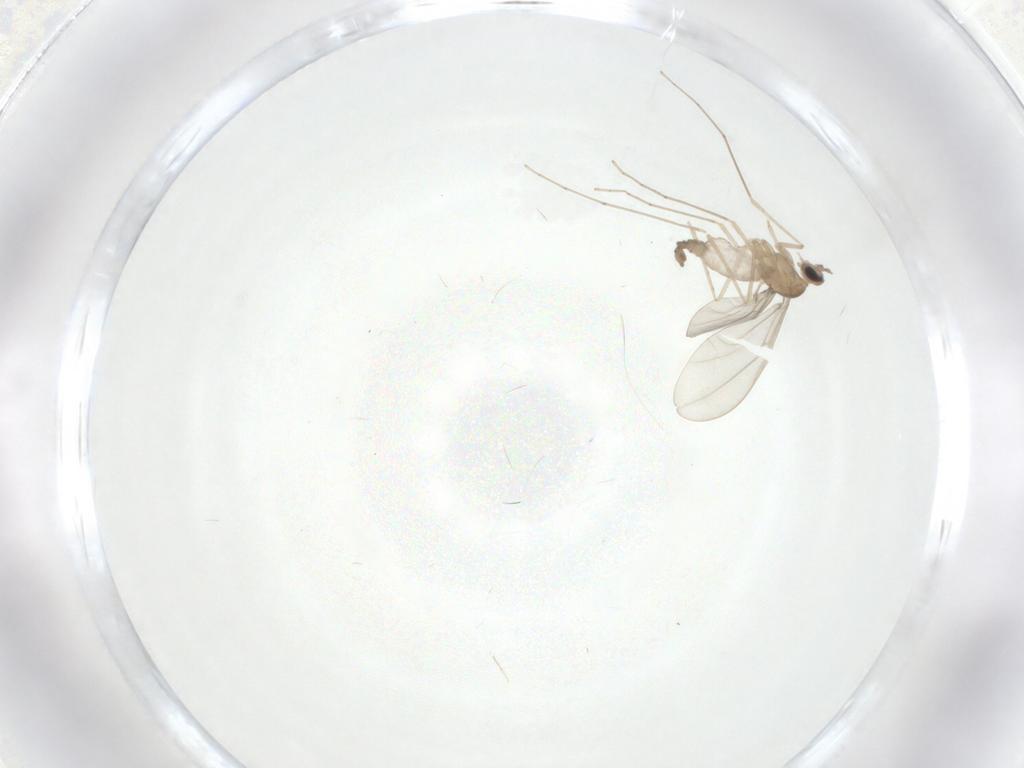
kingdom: Animalia
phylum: Arthropoda
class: Insecta
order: Diptera
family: Cecidomyiidae
